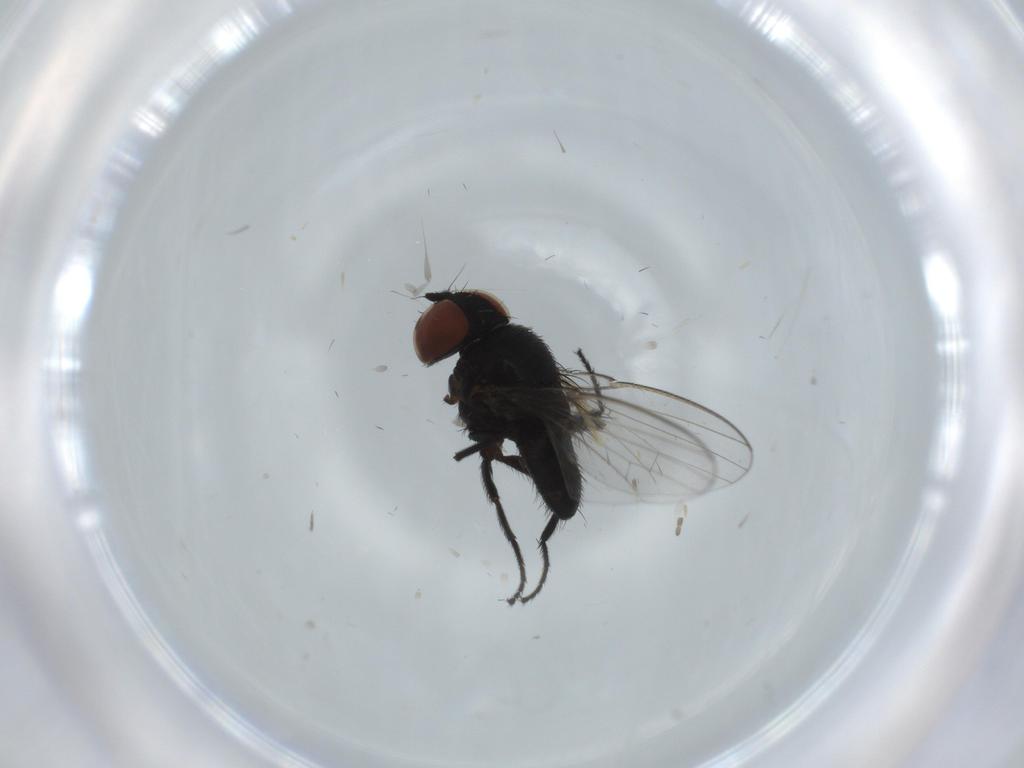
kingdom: Animalia
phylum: Arthropoda
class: Insecta
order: Diptera
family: Milichiidae
